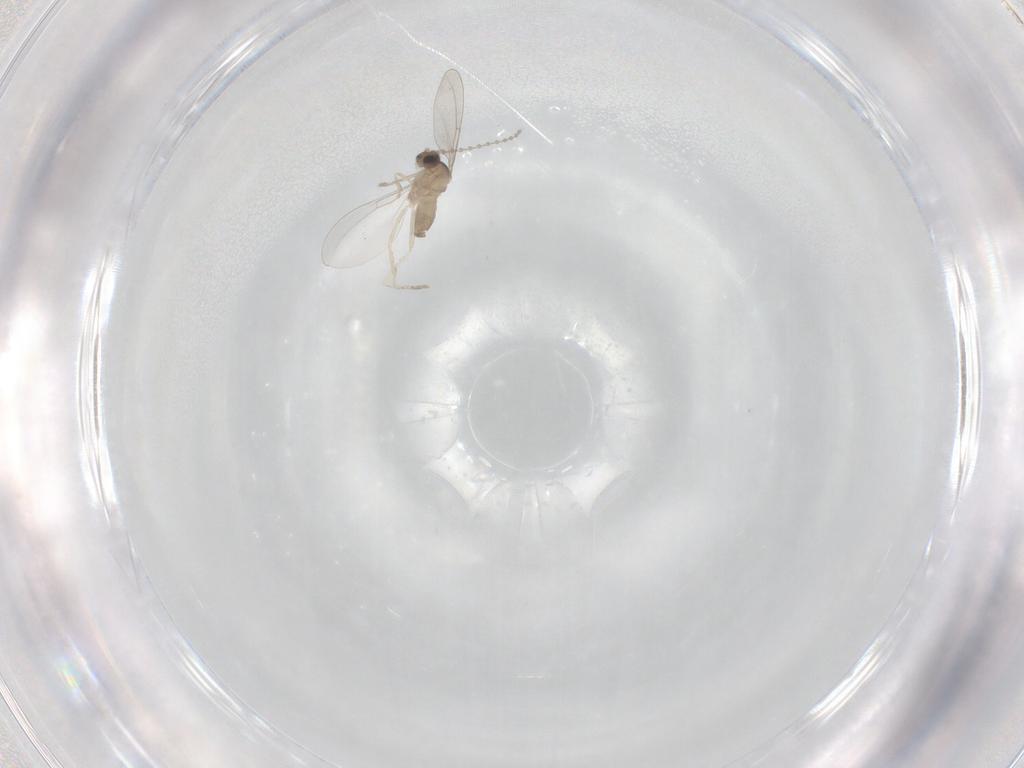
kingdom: Animalia
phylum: Arthropoda
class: Insecta
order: Diptera
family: Cecidomyiidae
